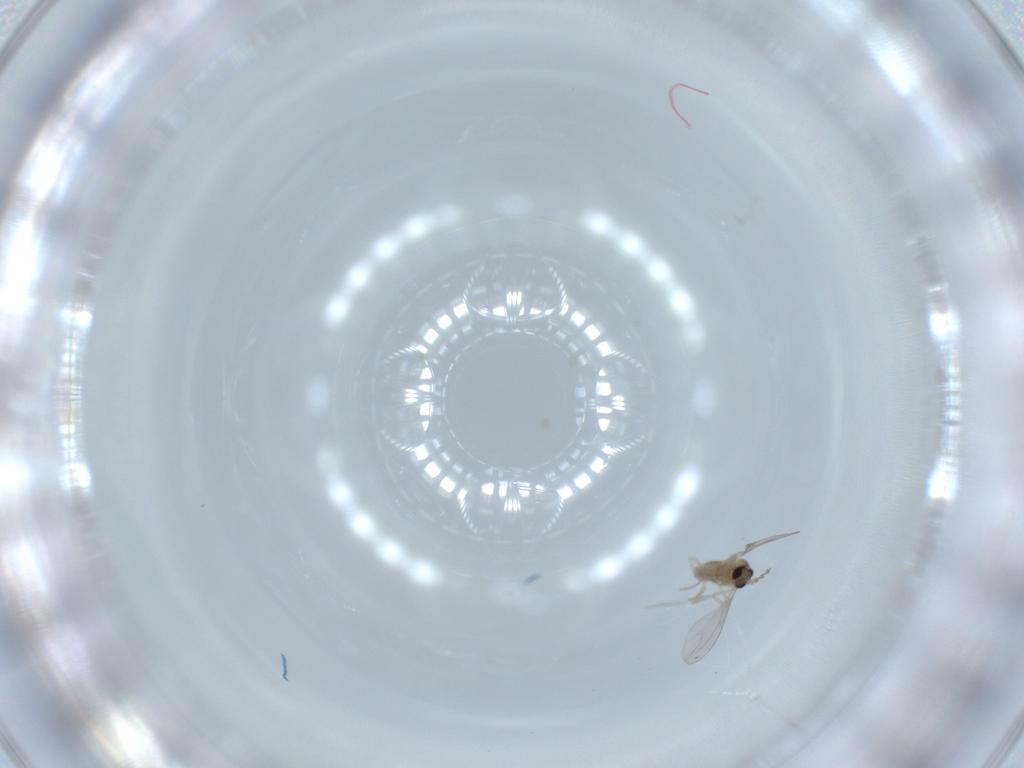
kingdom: Animalia
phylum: Arthropoda
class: Insecta
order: Diptera
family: Cecidomyiidae
